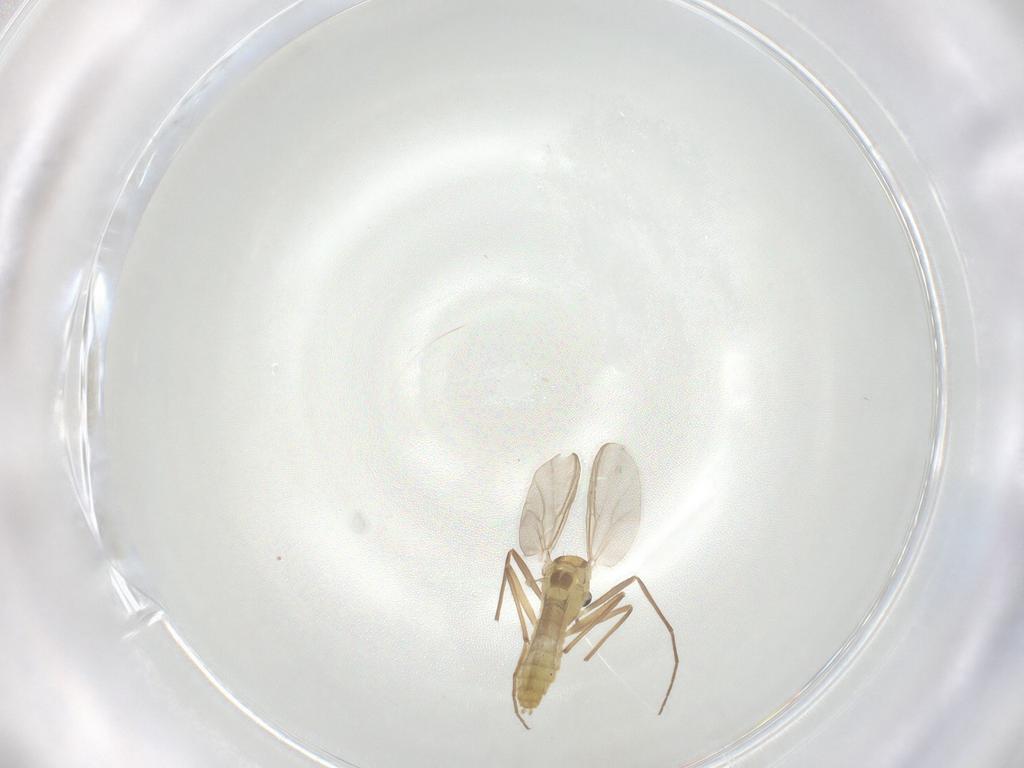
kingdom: Animalia
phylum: Arthropoda
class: Insecta
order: Diptera
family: Chironomidae
